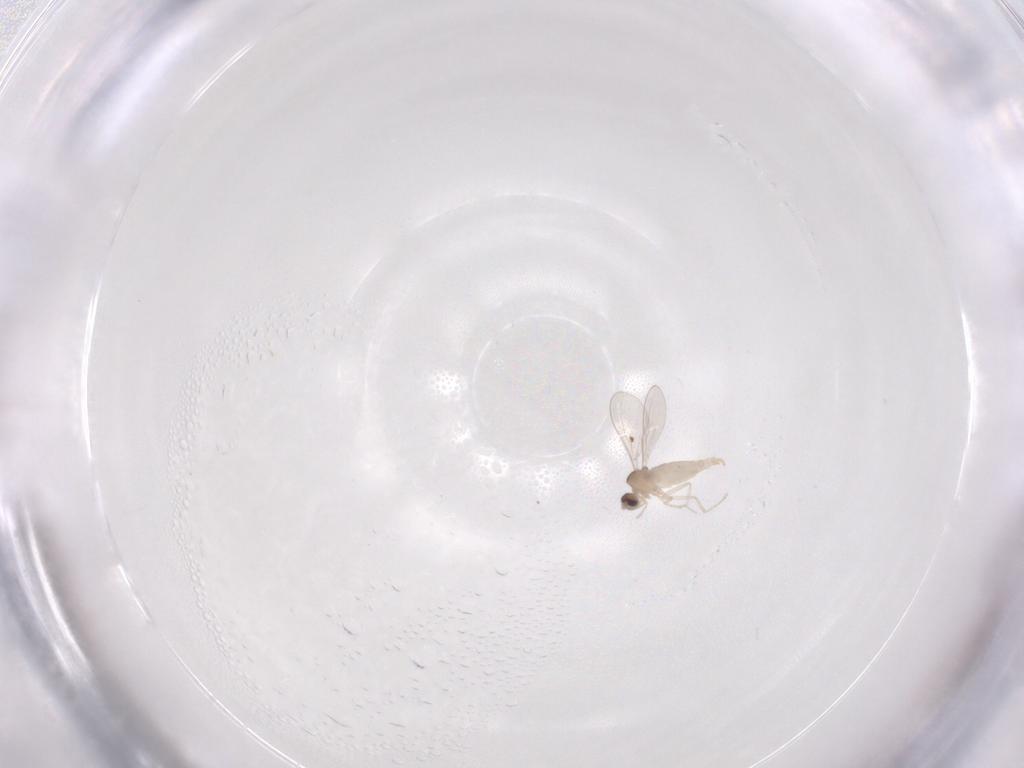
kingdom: Animalia
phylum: Arthropoda
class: Insecta
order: Diptera
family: Cecidomyiidae
